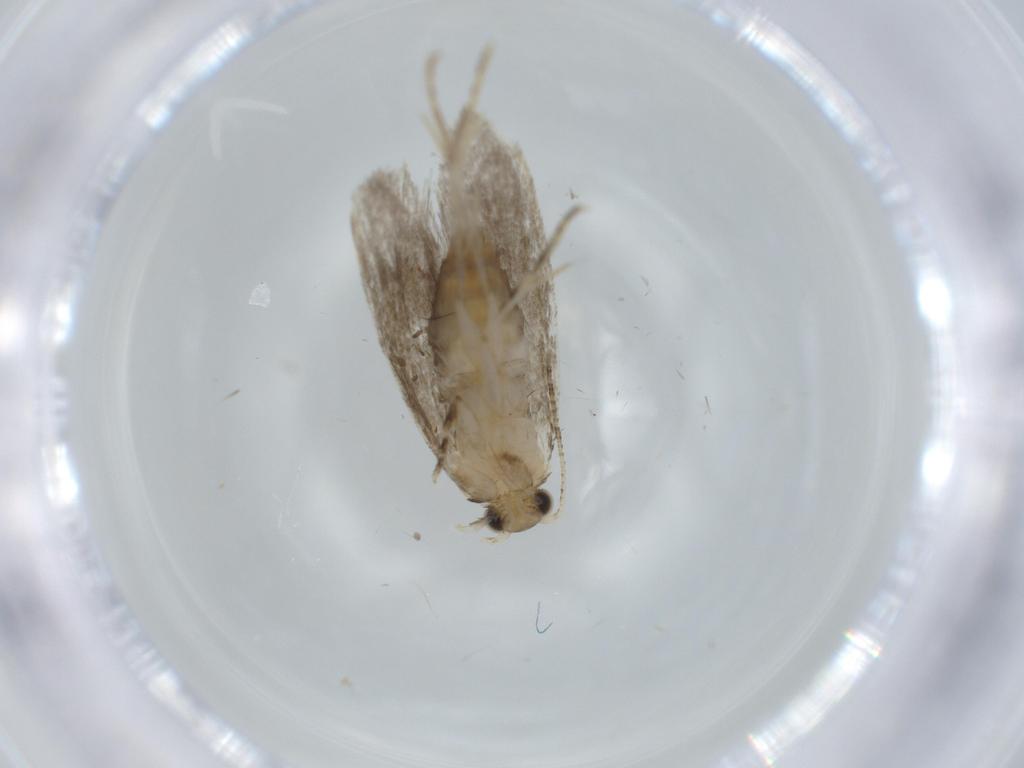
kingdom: Animalia
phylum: Arthropoda
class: Insecta
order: Lepidoptera
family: Tineidae
